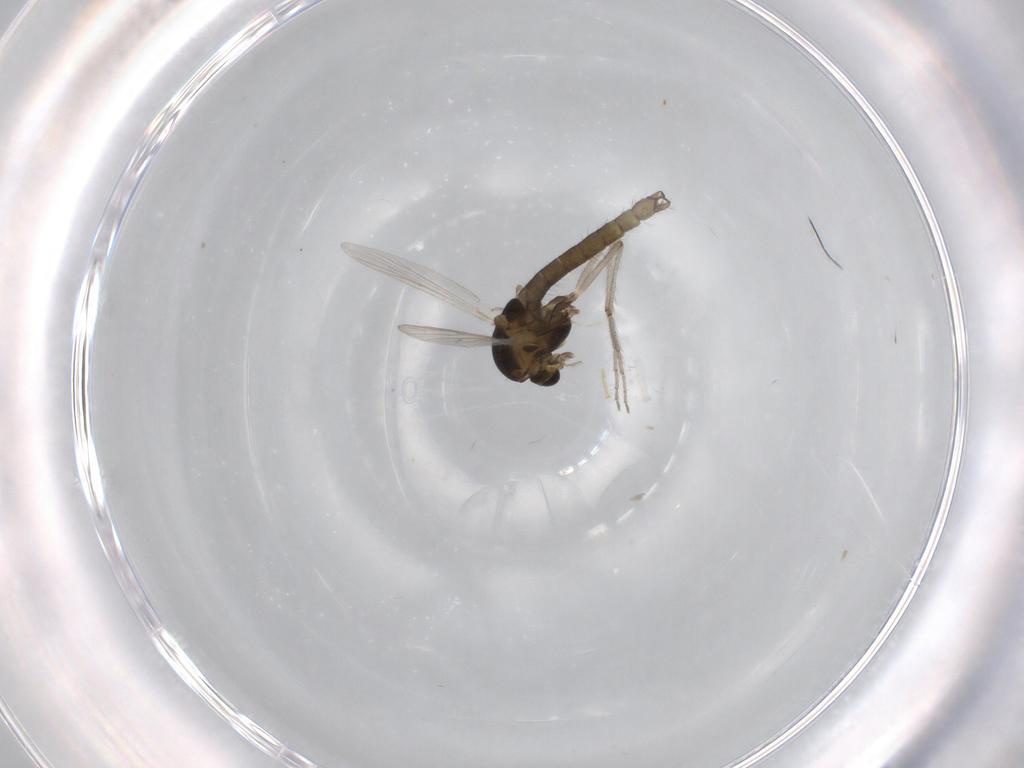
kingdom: Animalia
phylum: Arthropoda
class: Insecta
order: Diptera
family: Chironomidae
